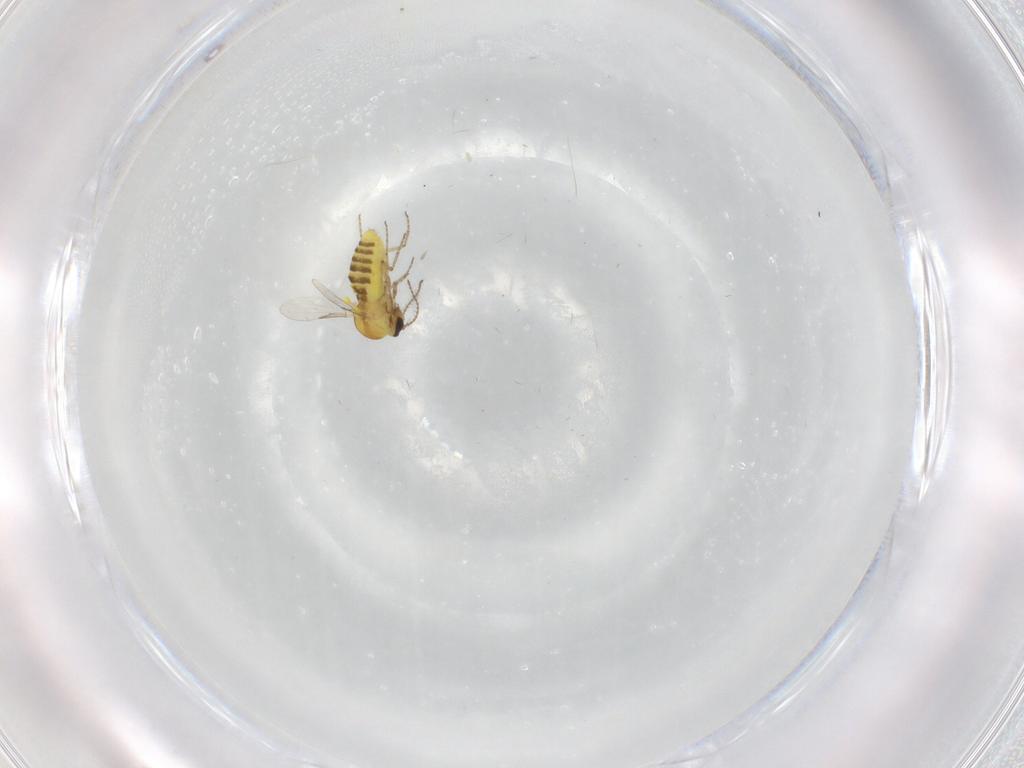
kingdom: Animalia
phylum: Arthropoda
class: Insecta
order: Diptera
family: Ceratopogonidae
